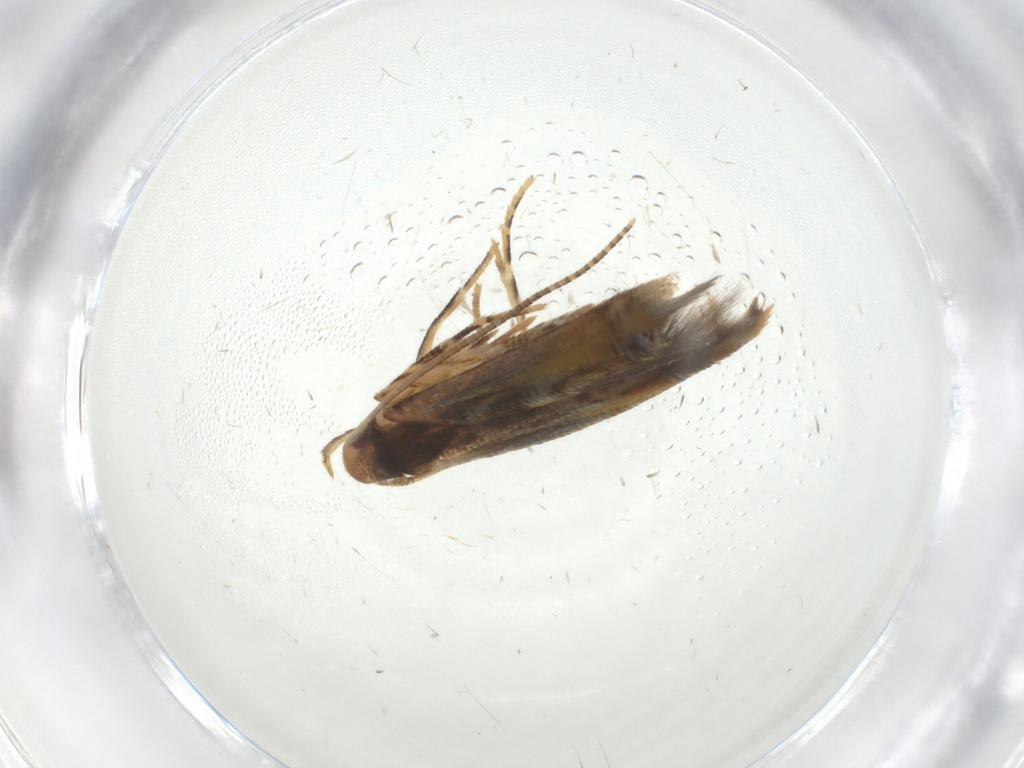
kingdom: Animalia
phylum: Arthropoda
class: Insecta
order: Lepidoptera
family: Momphidae
